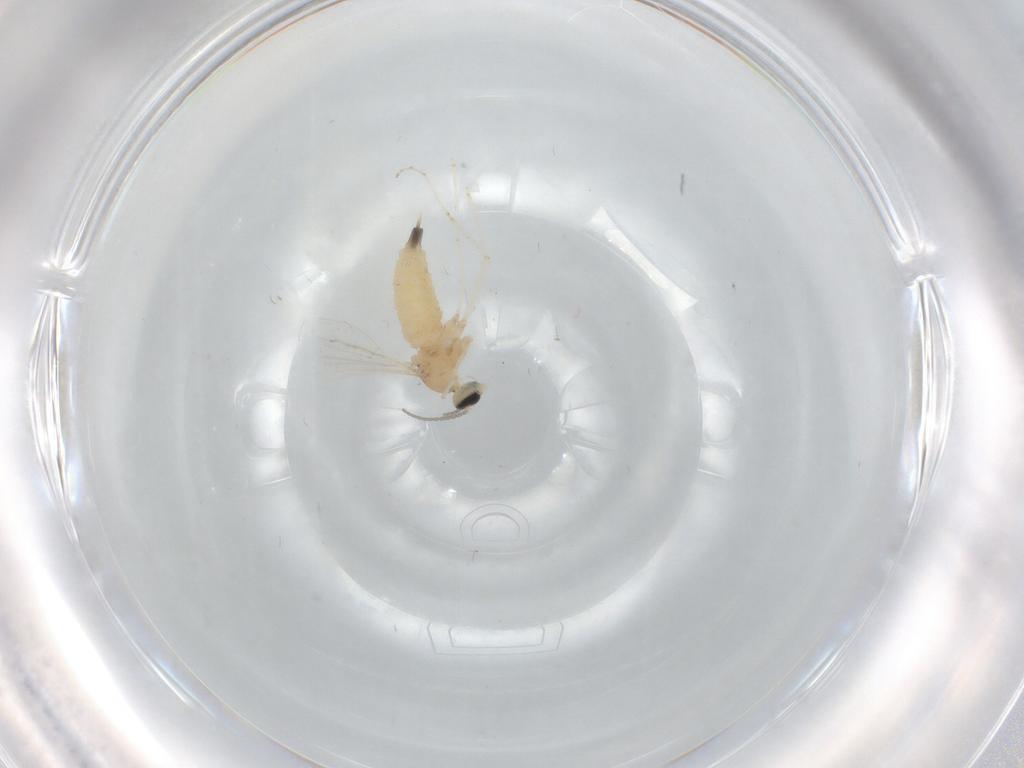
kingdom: Animalia
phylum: Arthropoda
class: Insecta
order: Diptera
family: Cecidomyiidae
